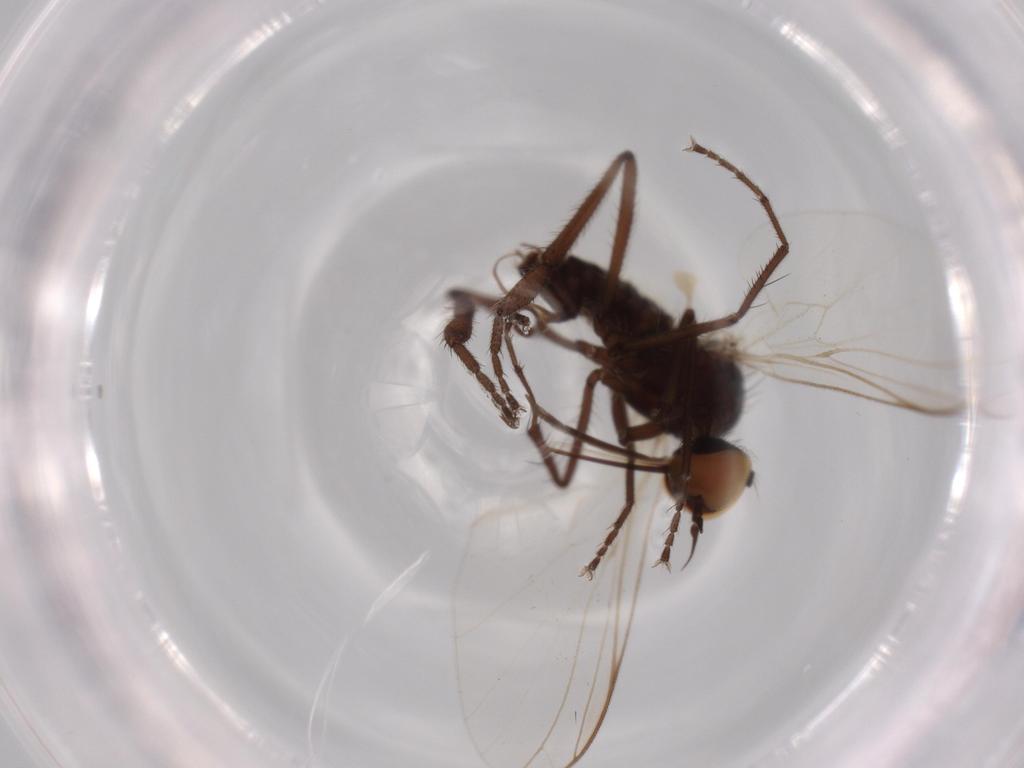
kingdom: Animalia
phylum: Arthropoda
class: Insecta
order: Diptera
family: Empididae
